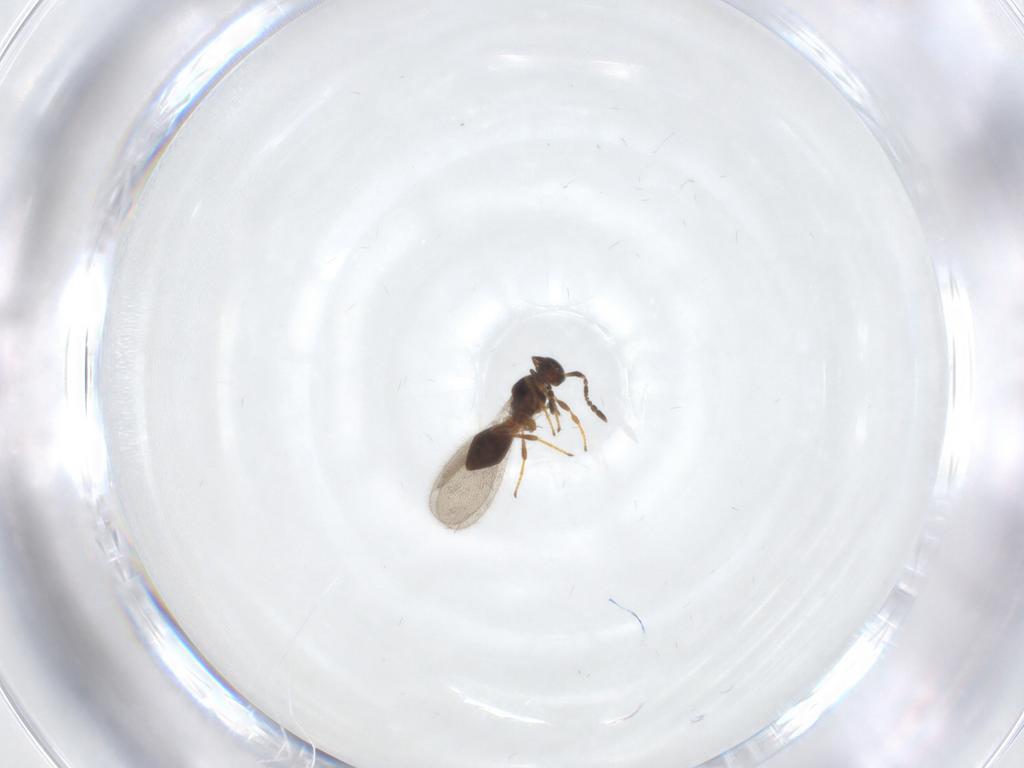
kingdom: Animalia
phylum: Arthropoda
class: Insecta
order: Hymenoptera
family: Platygastridae
